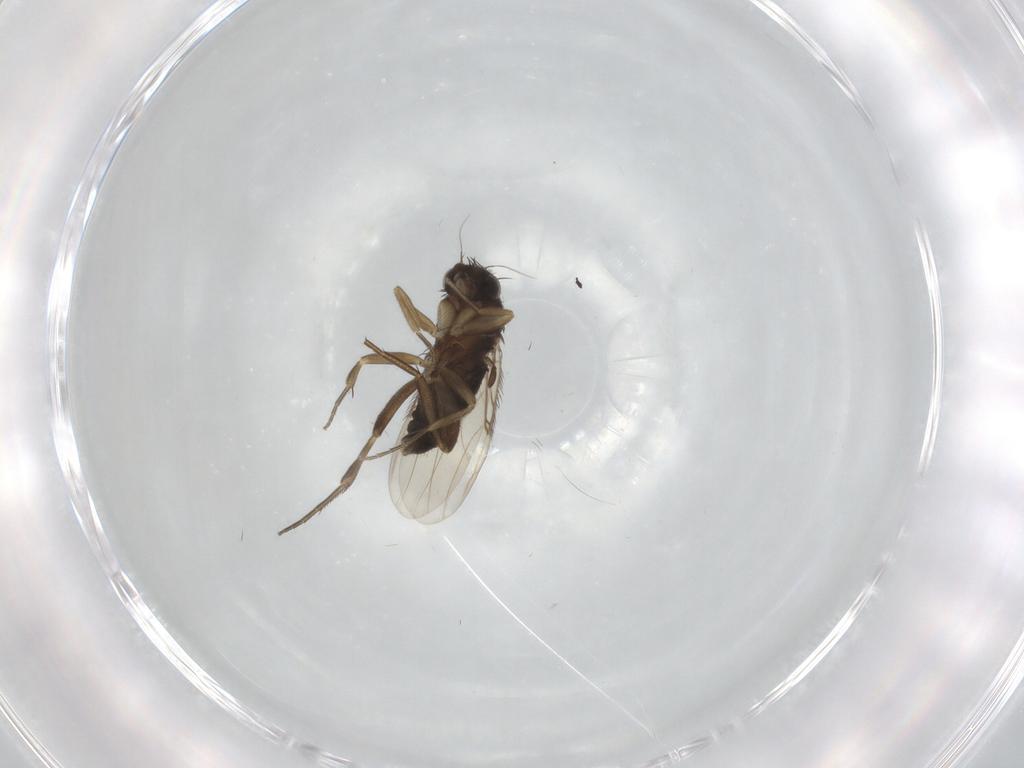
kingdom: Animalia
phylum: Arthropoda
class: Insecta
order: Diptera
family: Phoridae
